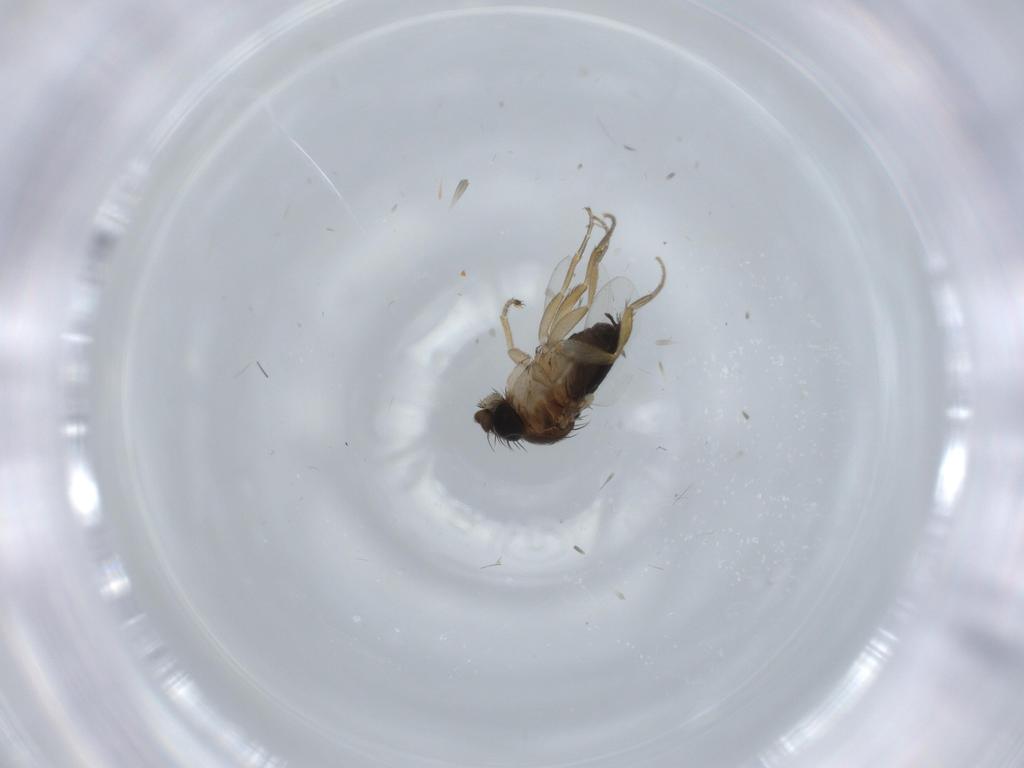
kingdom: Animalia
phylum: Arthropoda
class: Insecta
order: Diptera
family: Phoridae
